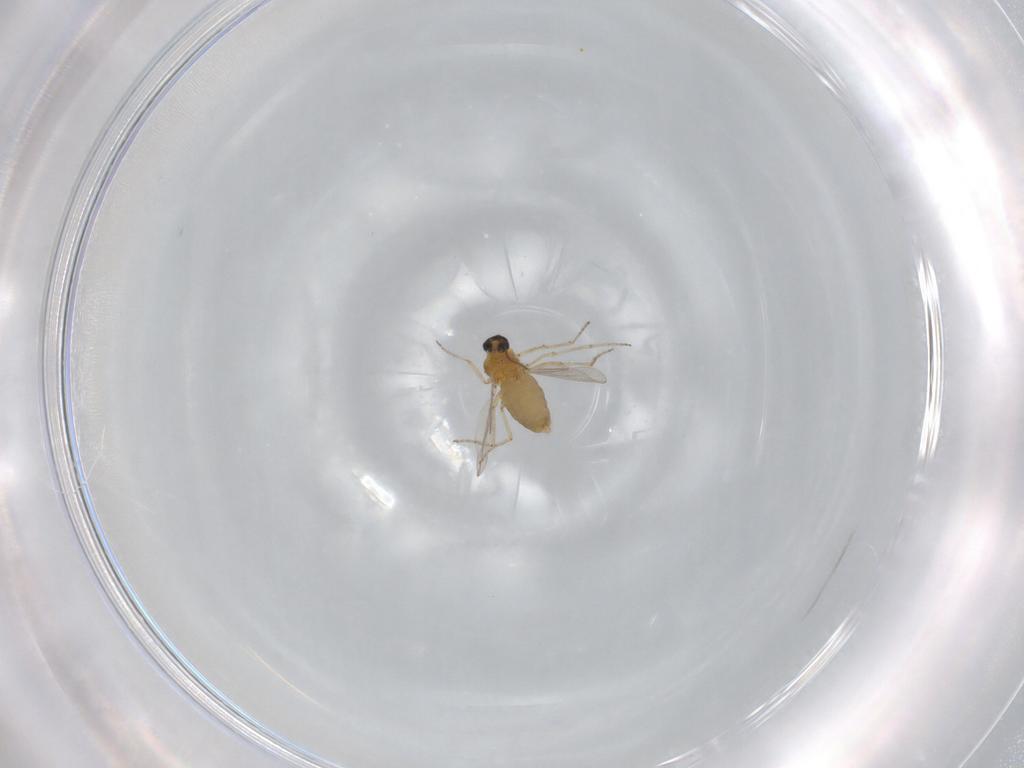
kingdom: Animalia
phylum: Arthropoda
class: Insecta
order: Diptera
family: Ceratopogonidae
